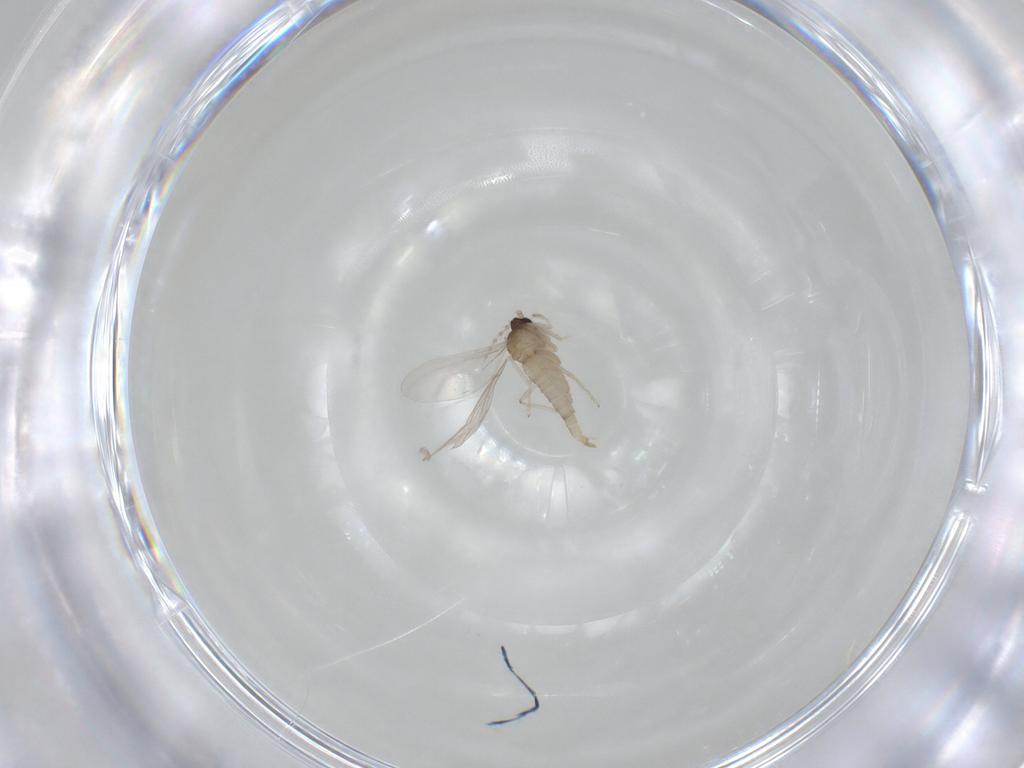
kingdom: Animalia
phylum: Arthropoda
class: Insecta
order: Diptera
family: Cecidomyiidae
